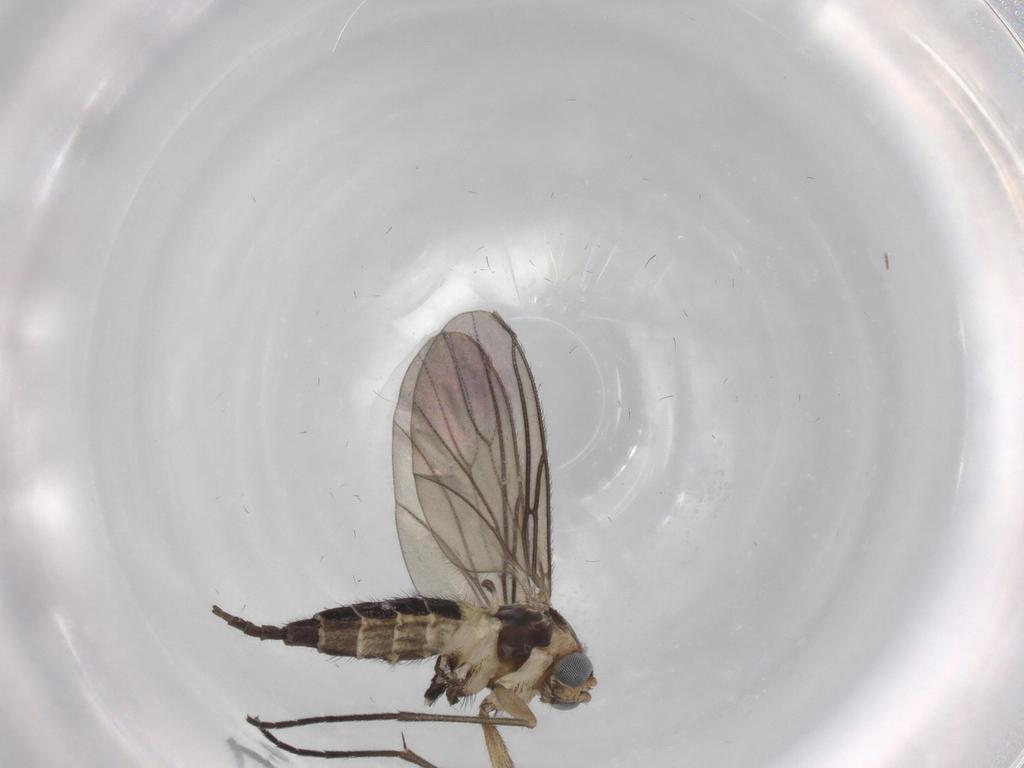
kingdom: Animalia
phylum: Arthropoda
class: Insecta
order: Diptera
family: Sciaridae
